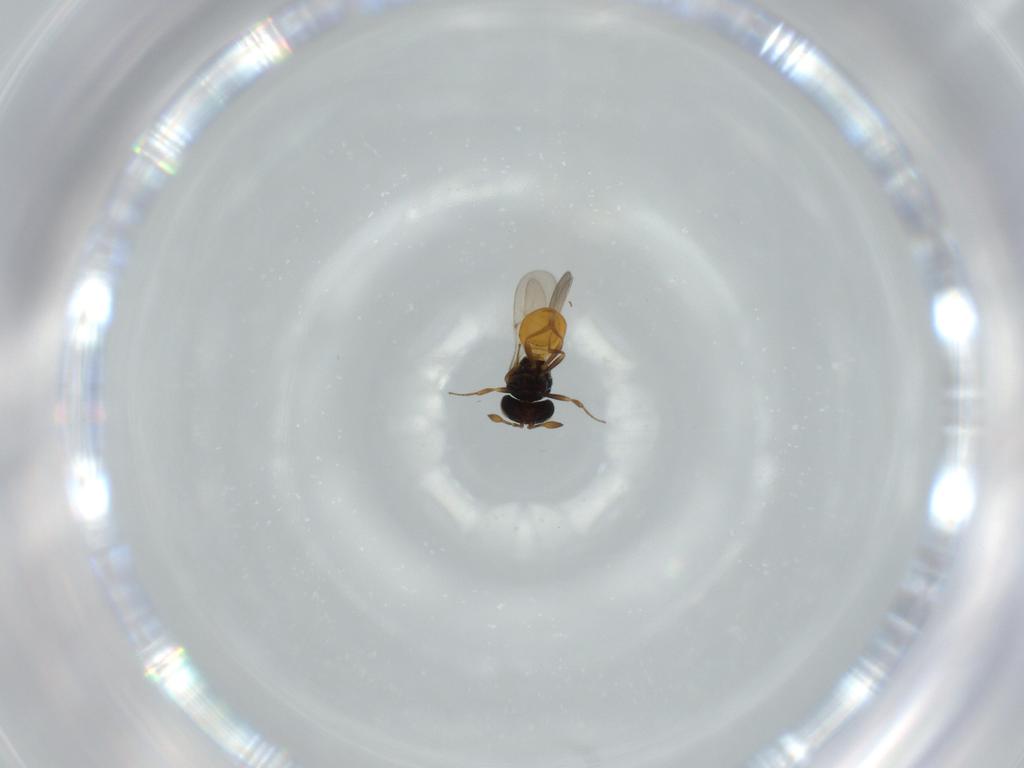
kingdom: Animalia
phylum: Arthropoda
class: Insecta
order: Hymenoptera
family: Scelionidae
